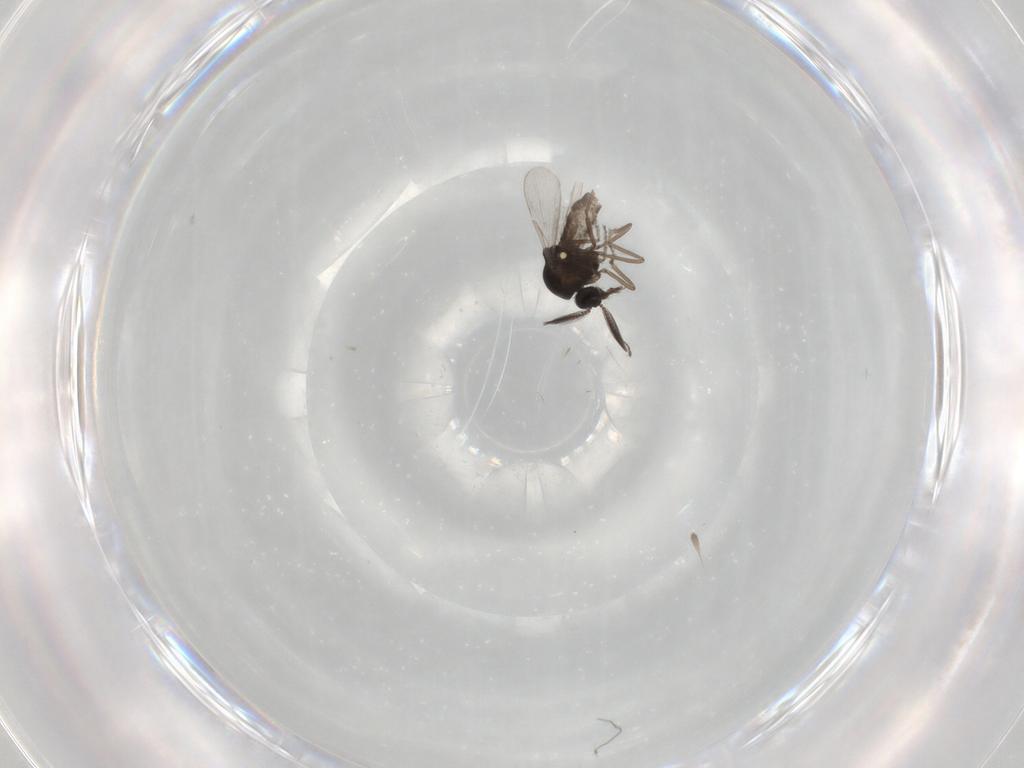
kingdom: Animalia
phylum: Arthropoda
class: Insecta
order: Diptera
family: Ceratopogonidae
